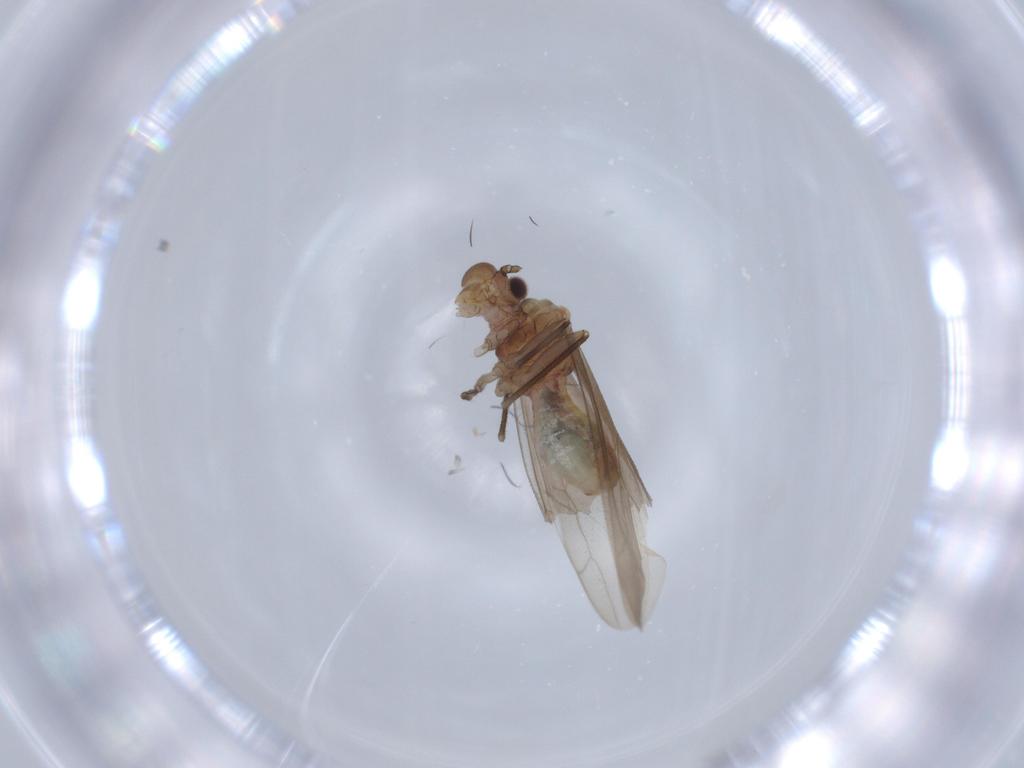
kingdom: Animalia
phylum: Arthropoda
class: Insecta
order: Psocodea
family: Caeciliusidae
